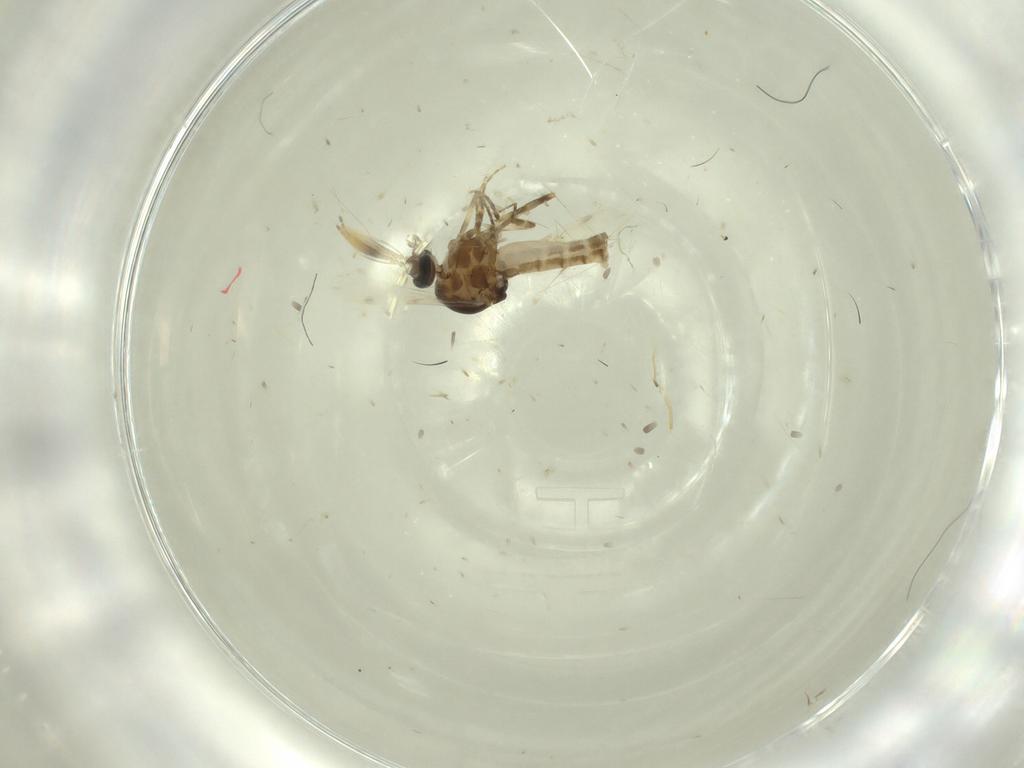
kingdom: Animalia
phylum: Arthropoda
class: Insecta
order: Diptera
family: Ceratopogonidae
